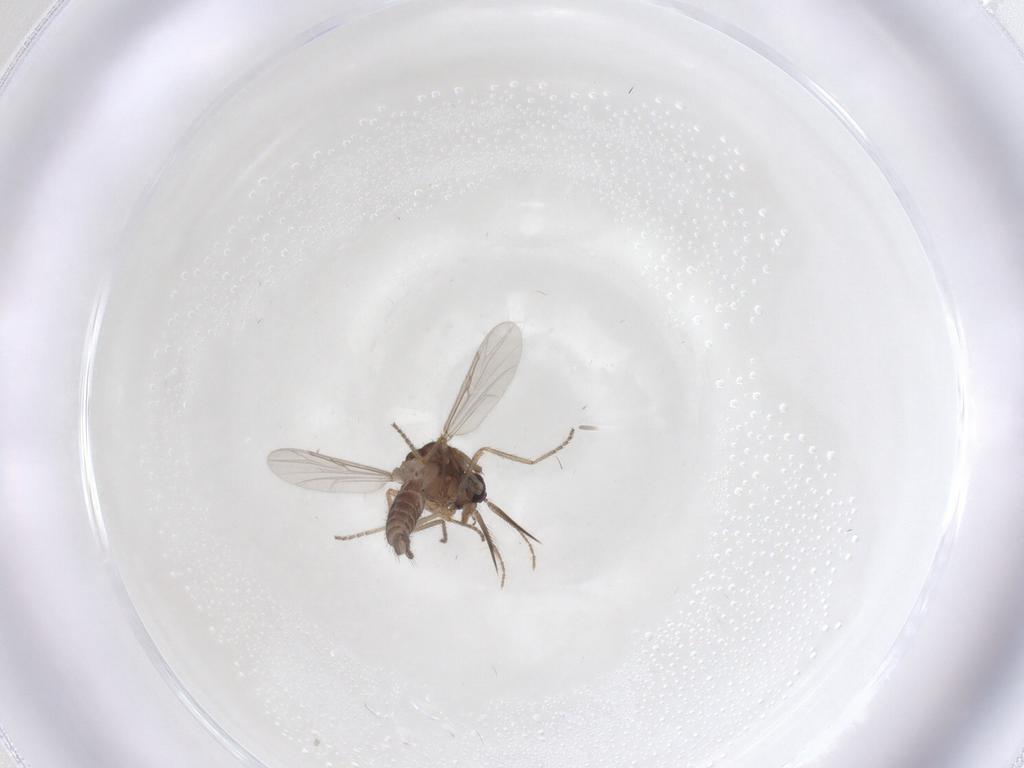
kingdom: Animalia
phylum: Arthropoda
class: Insecta
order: Diptera
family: Ceratopogonidae
